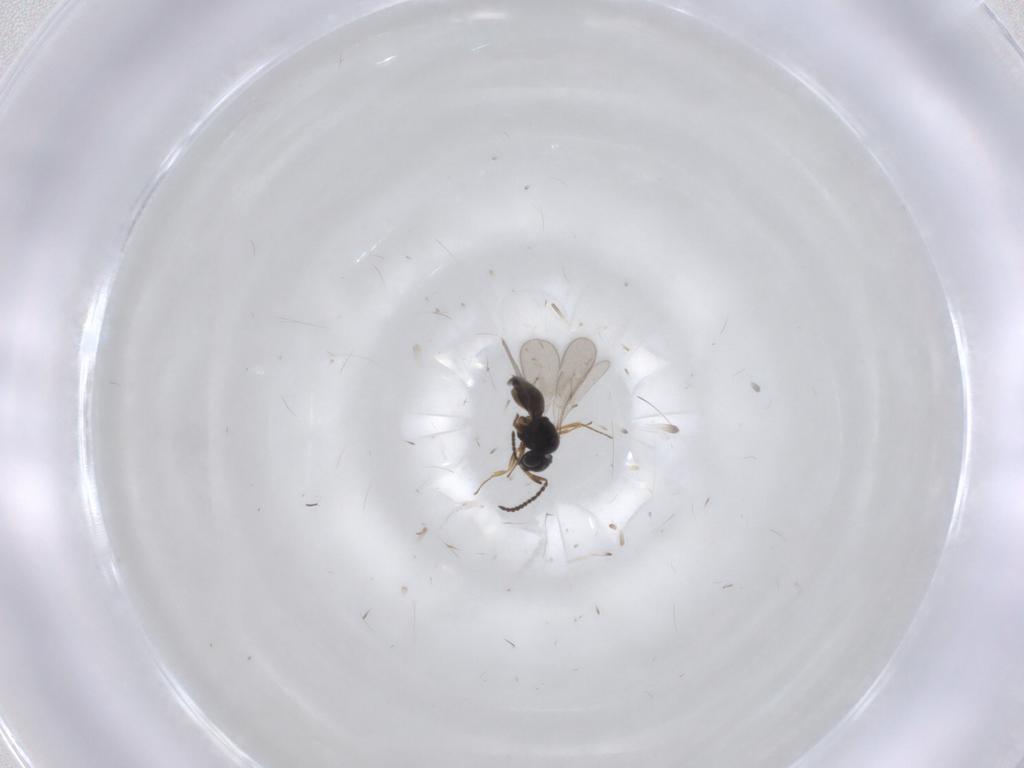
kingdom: Animalia
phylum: Arthropoda
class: Insecta
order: Hymenoptera
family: Scelionidae
